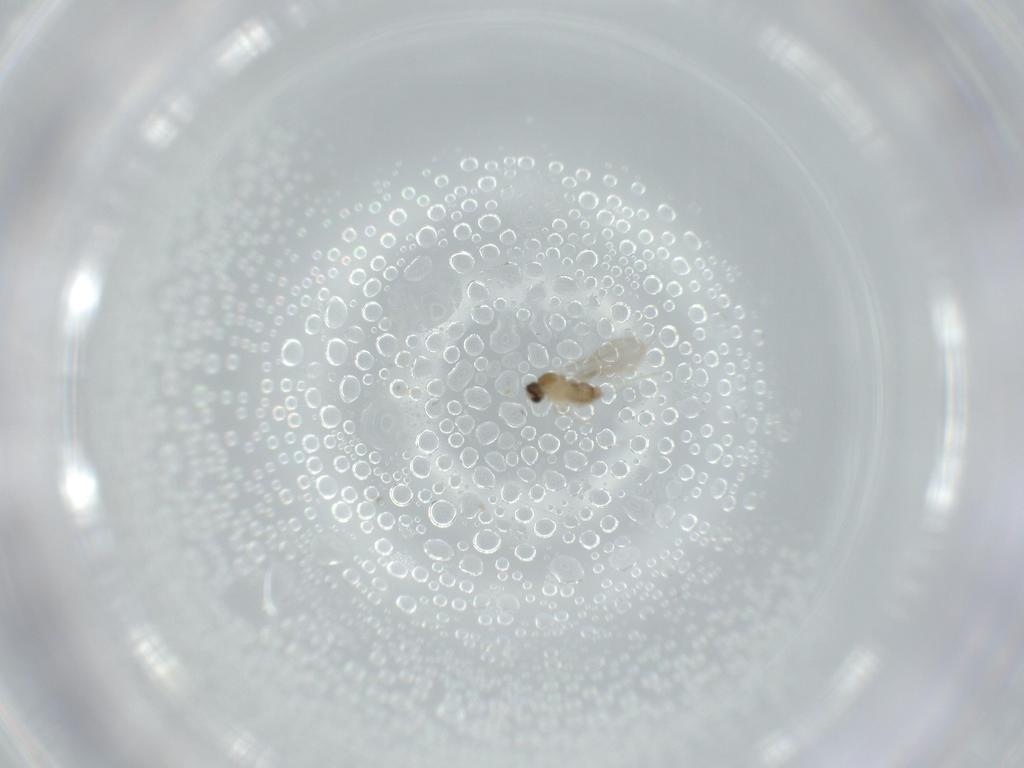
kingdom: Animalia
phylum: Arthropoda
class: Insecta
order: Diptera
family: Cecidomyiidae
